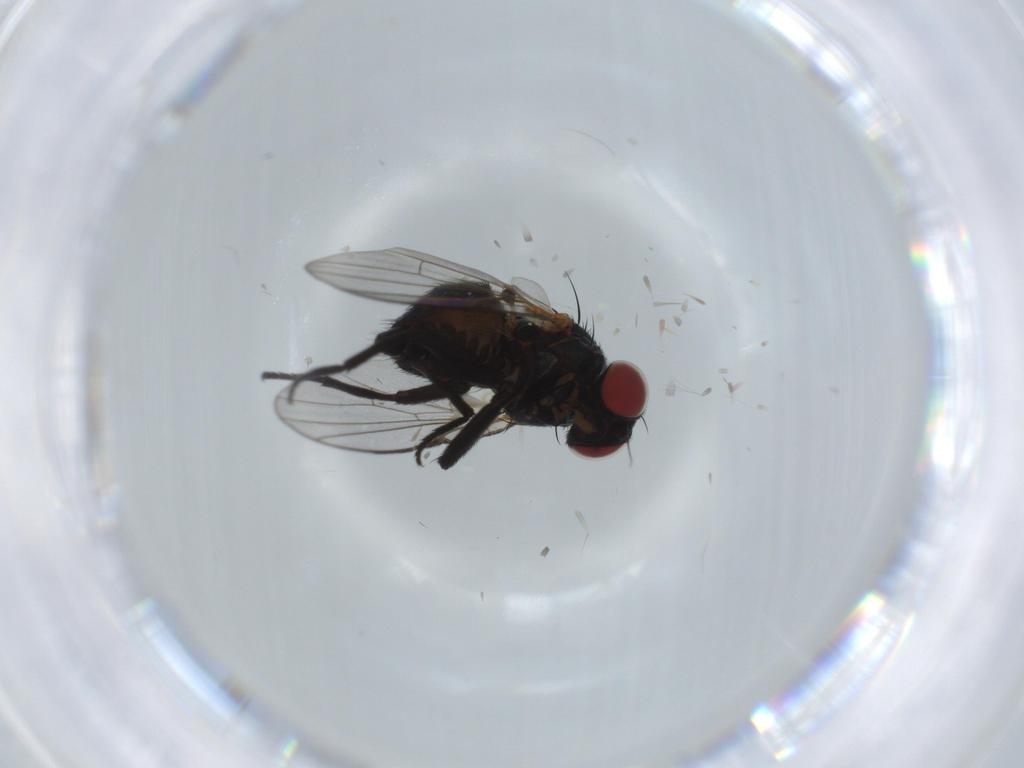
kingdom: Animalia
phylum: Arthropoda
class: Insecta
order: Diptera
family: Agromyzidae
